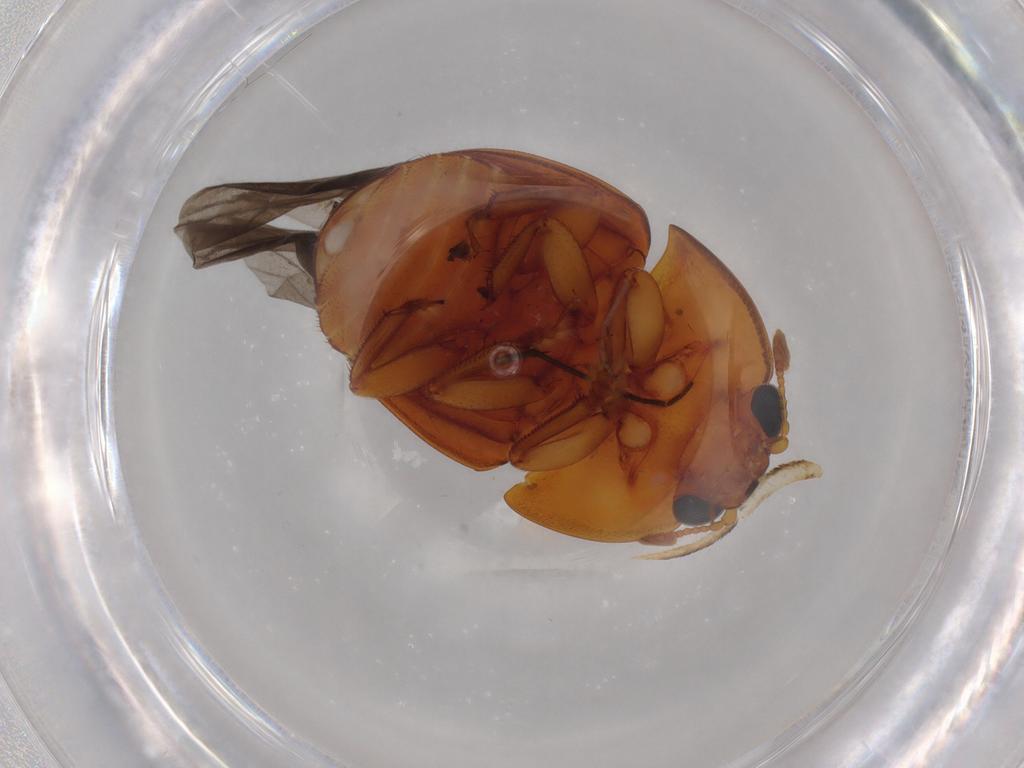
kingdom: Animalia
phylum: Arthropoda
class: Insecta
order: Coleoptera
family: Nitidulidae
